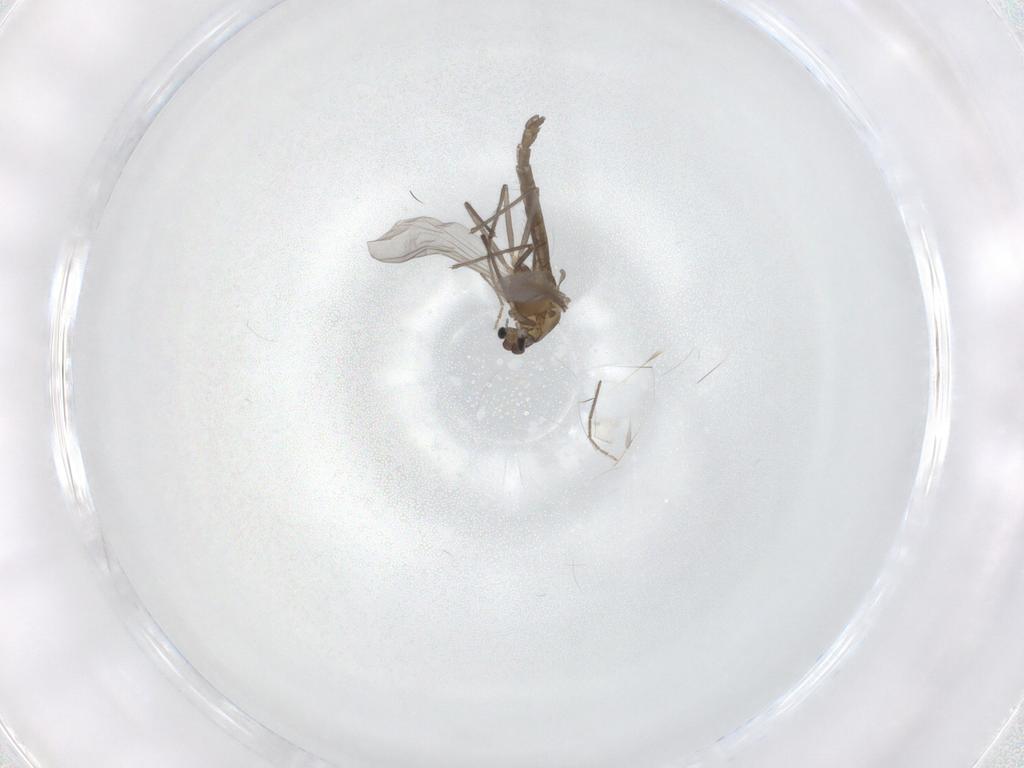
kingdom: Animalia
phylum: Arthropoda
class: Insecta
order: Diptera
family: Chironomidae
